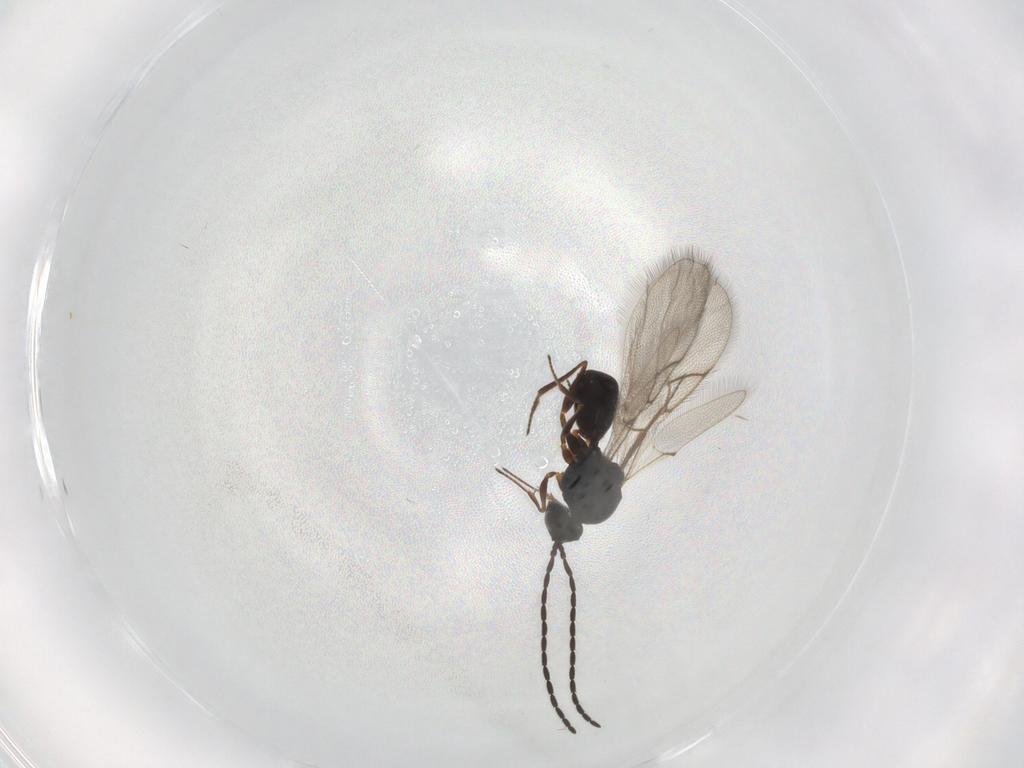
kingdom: Animalia
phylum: Arthropoda
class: Insecta
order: Hymenoptera
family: Figitidae
